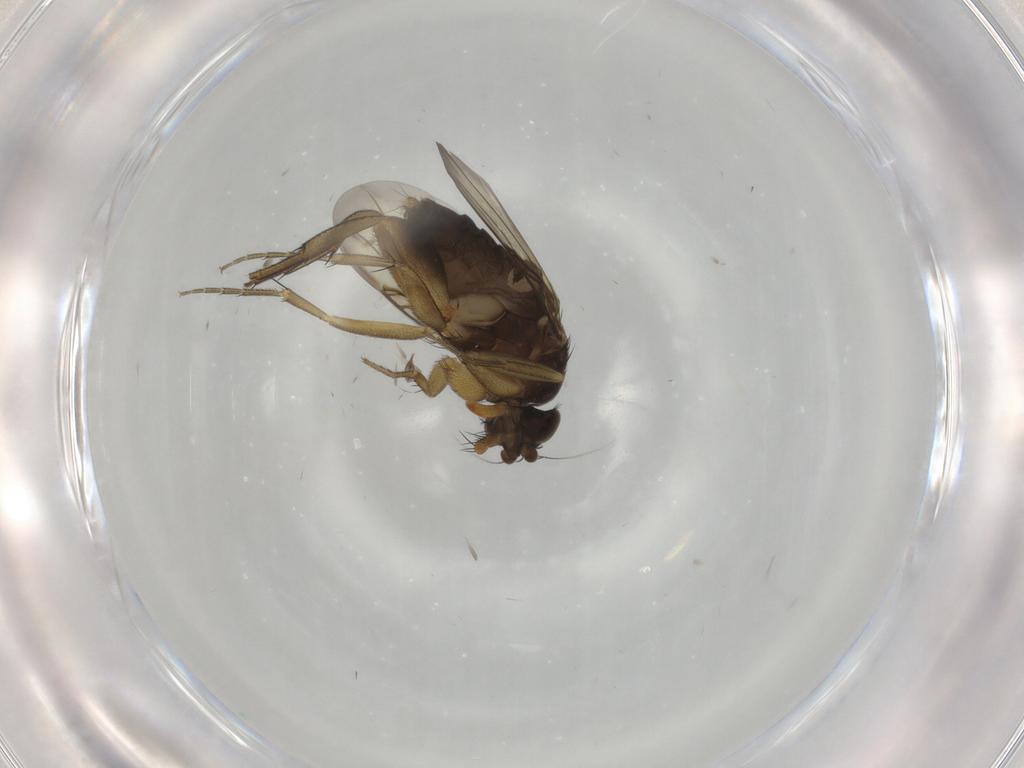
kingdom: Animalia
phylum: Arthropoda
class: Insecta
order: Diptera
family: Phoridae
